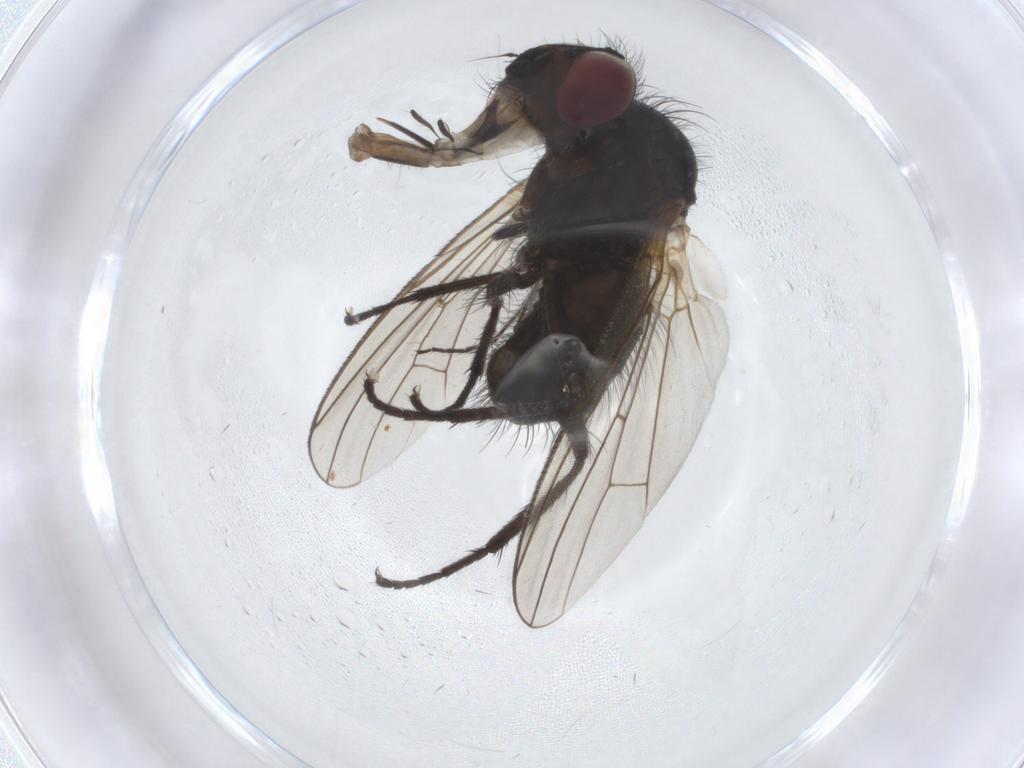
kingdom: Animalia
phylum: Arthropoda
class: Insecta
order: Diptera
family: Anthomyiidae
